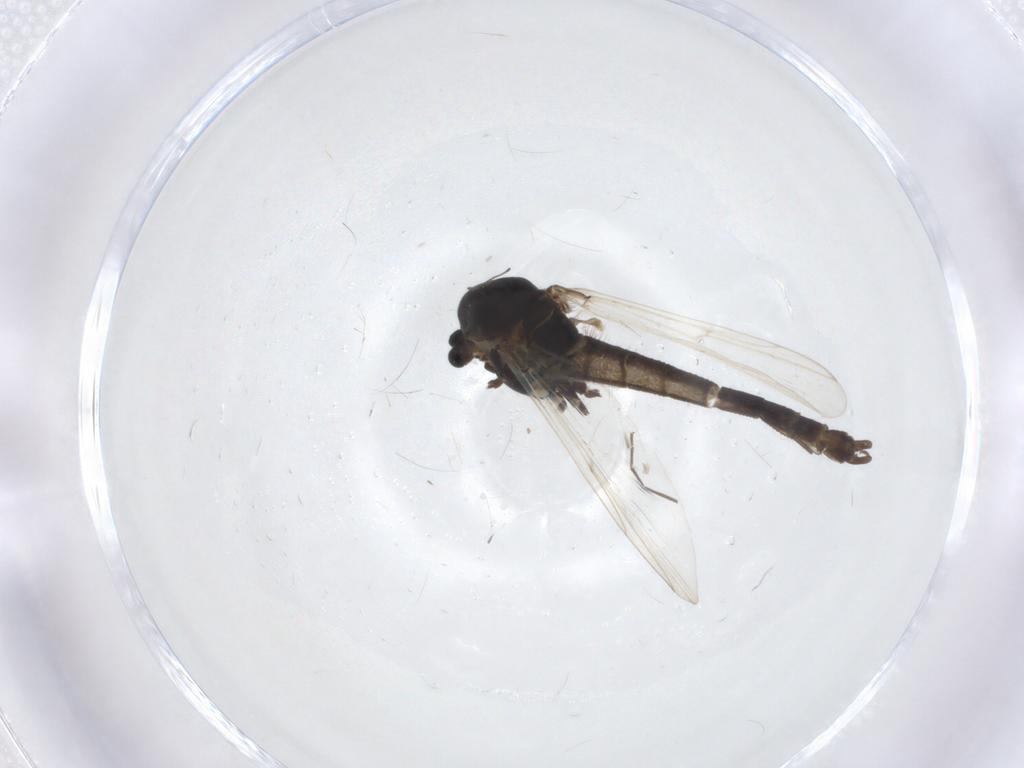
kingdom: Animalia
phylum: Arthropoda
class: Insecta
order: Diptera
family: Chironomidae
